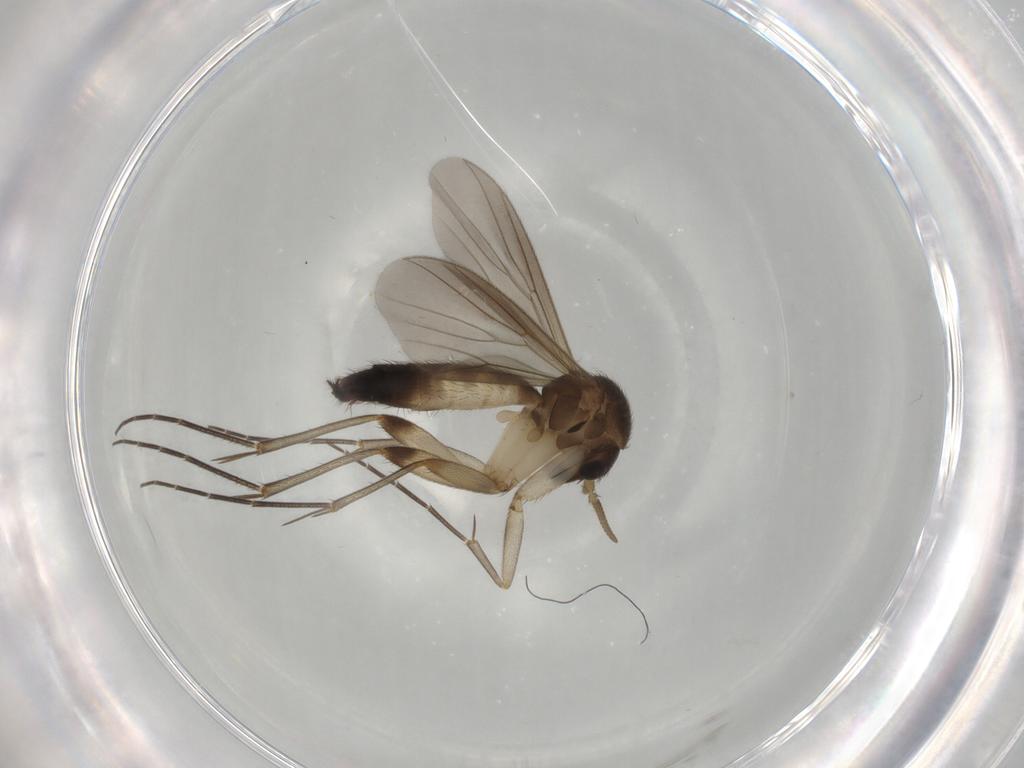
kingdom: Animalia
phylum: Arthropoda
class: Insecta
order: Diptera
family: Mycetophilidae
